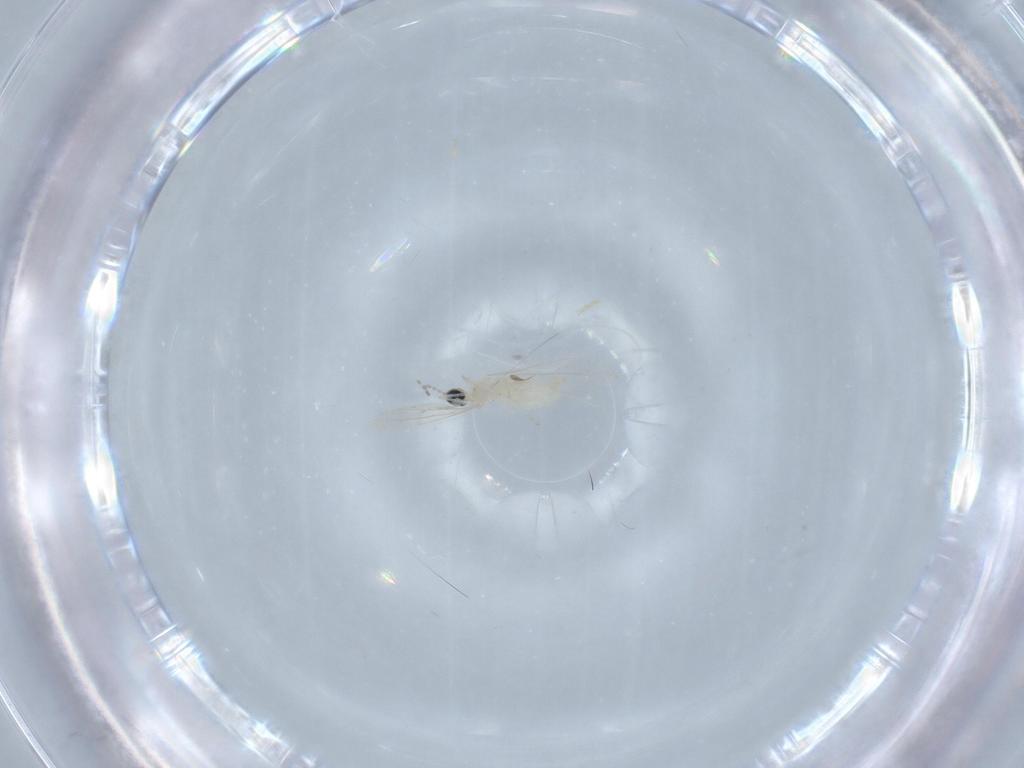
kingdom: Animalia
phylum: Arthropoda
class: Insecta
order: Diptera
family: Cecidomyiidae
